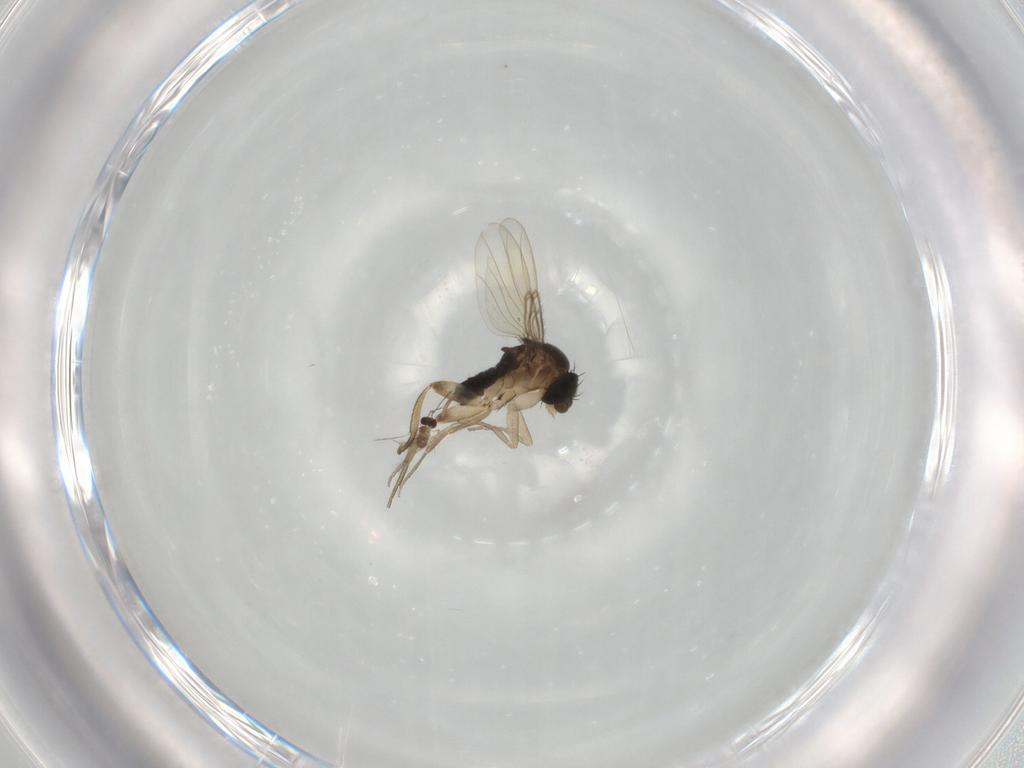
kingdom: Animalia
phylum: Arthropoda
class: Insecta
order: Diptera
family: Phoridae
